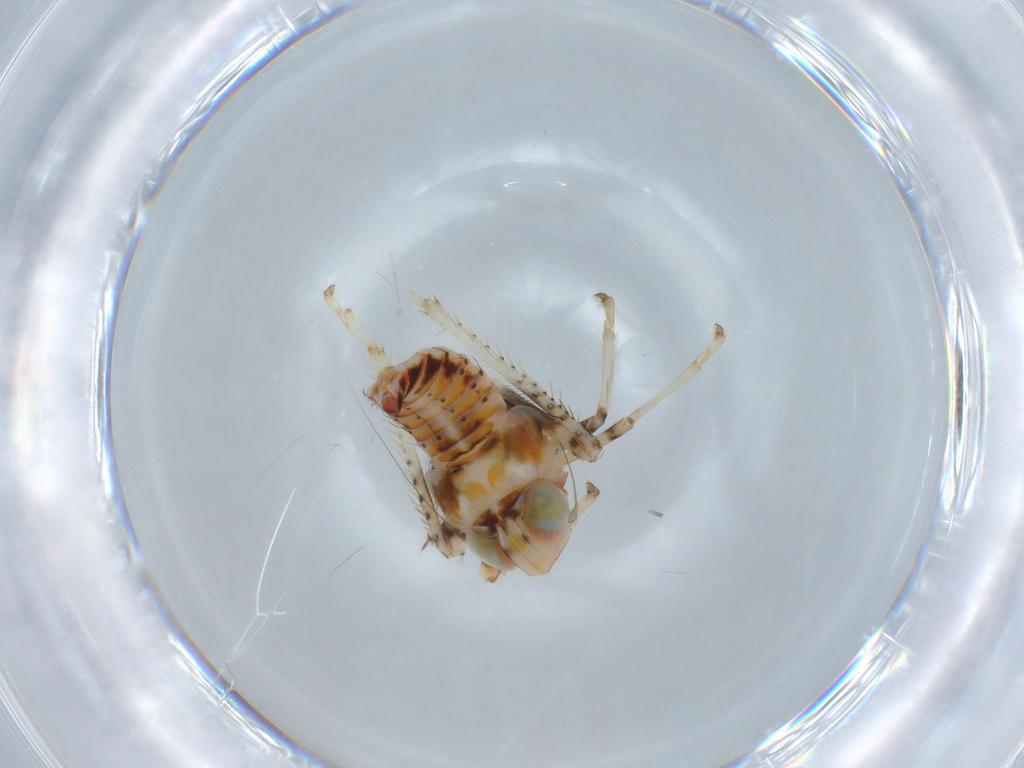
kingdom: Animalia
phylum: Arthropoda
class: Insecta
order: Hemiptera
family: Cicadellidae
